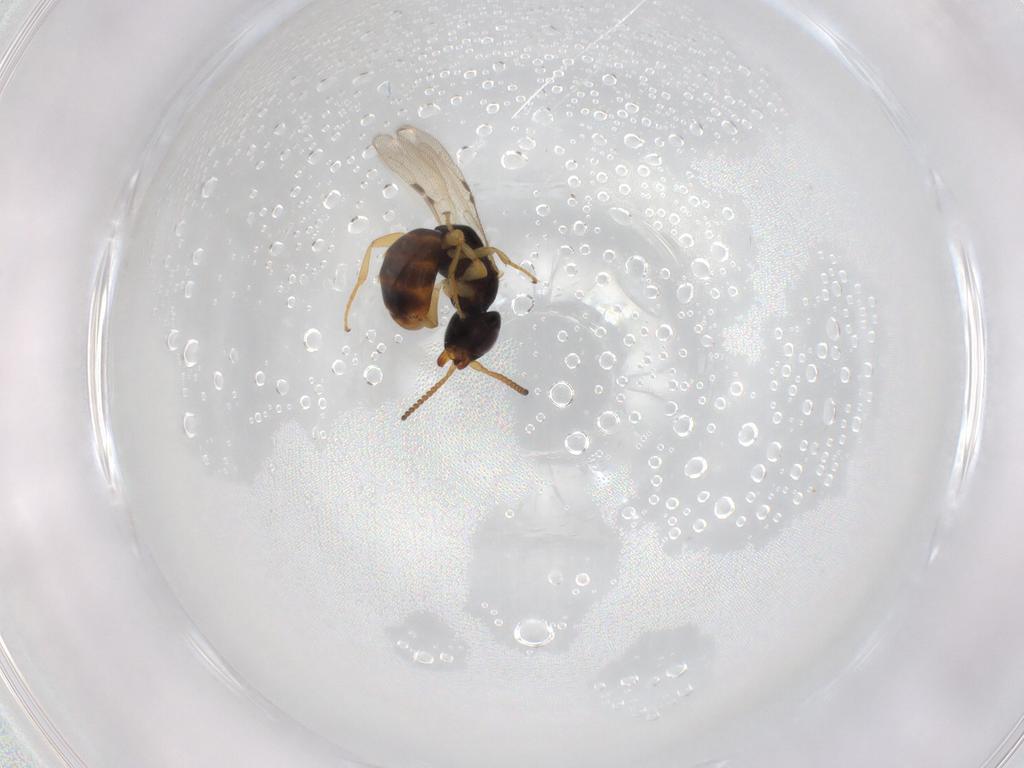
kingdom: Animalia
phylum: Arthropoda
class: Insecta
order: Hymenoptera
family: Bethylidae
